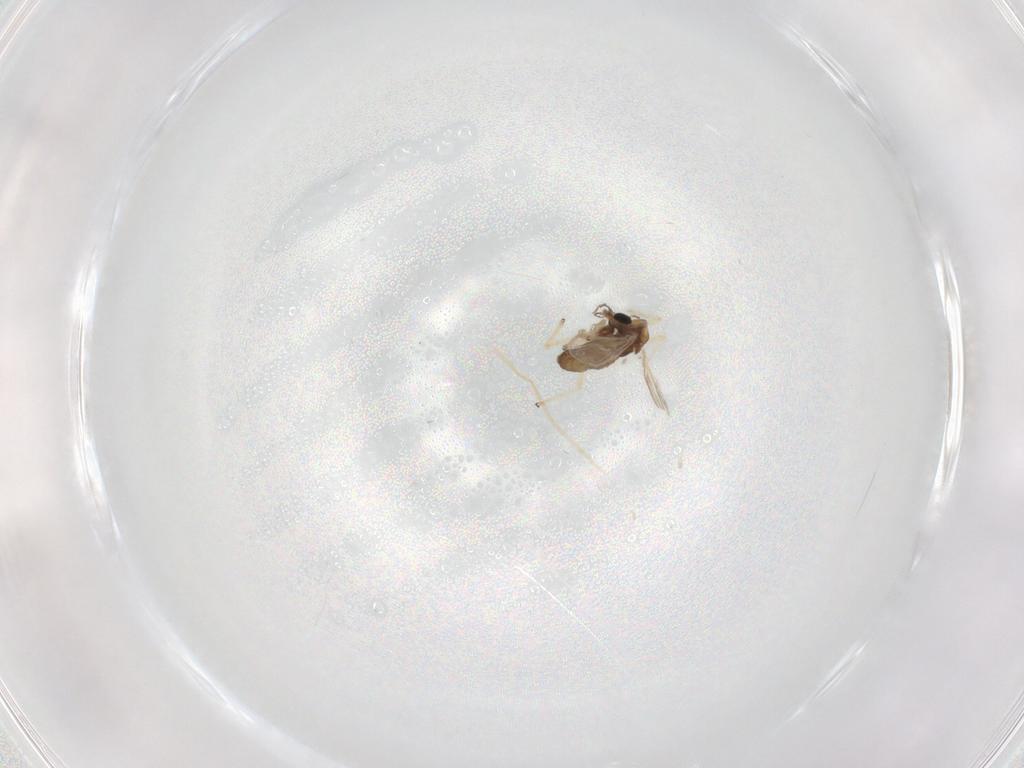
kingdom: Animalia
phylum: Arthropoda
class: Insecta
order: Diptera
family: Chironomidae
